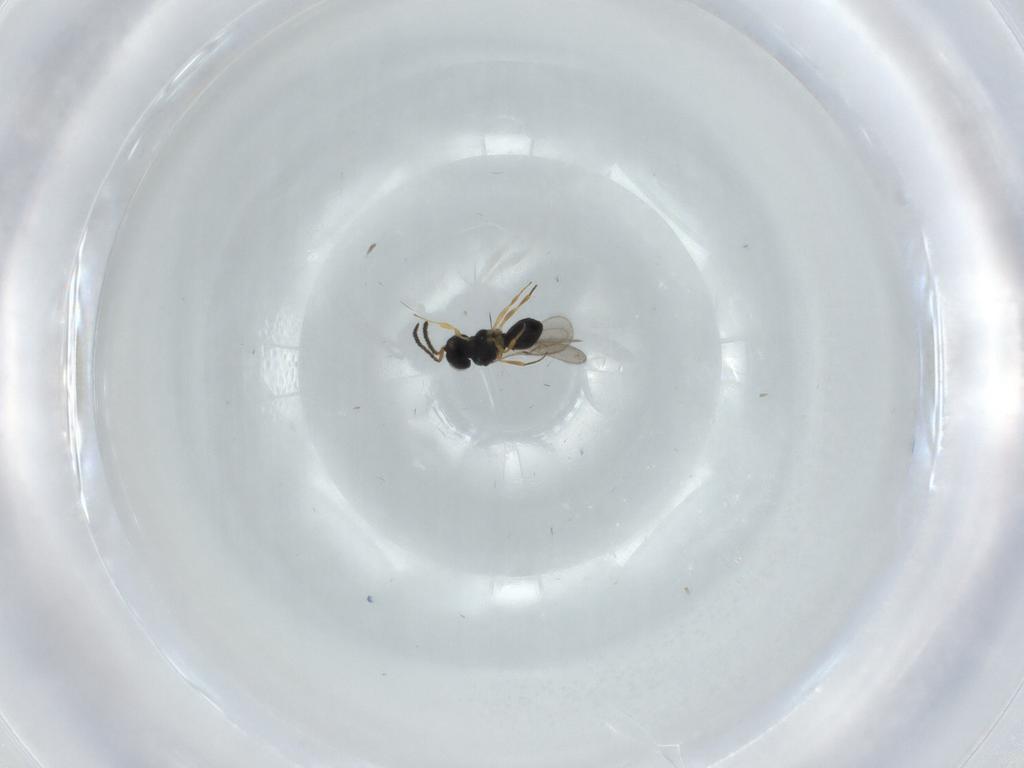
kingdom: Animalia
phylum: Arthropoda
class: Insecta
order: Hymenoptera
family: Scelionidae
